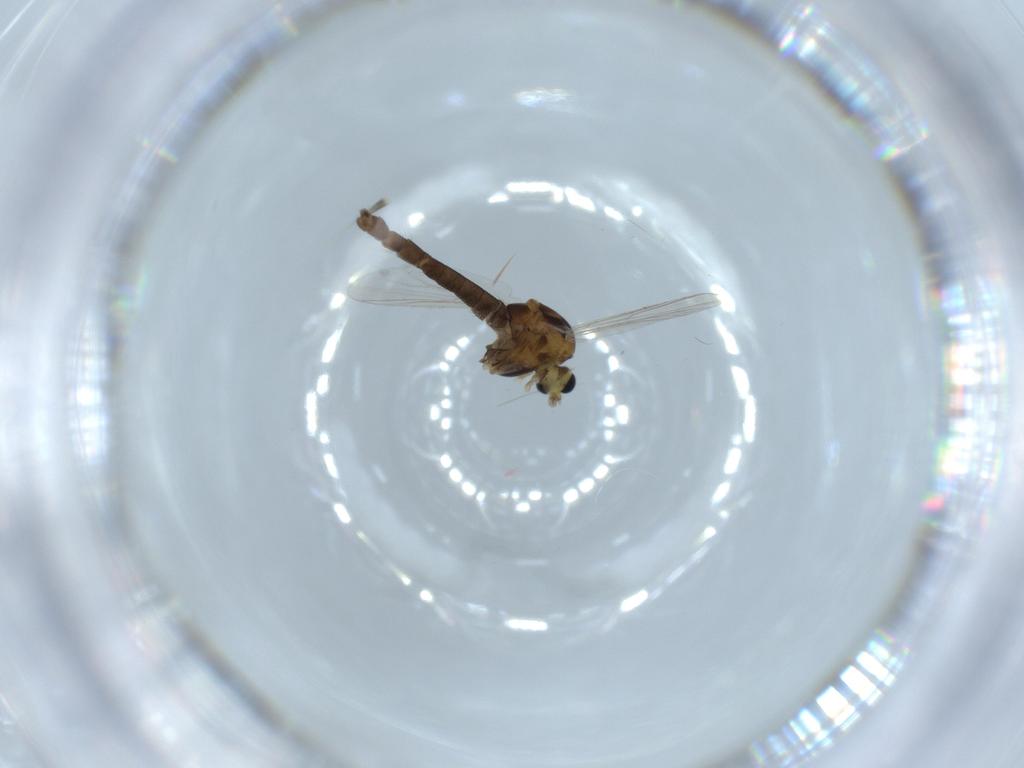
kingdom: Animalia
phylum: Arthropoda
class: Insecta
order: Diptera
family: Chironomidae
